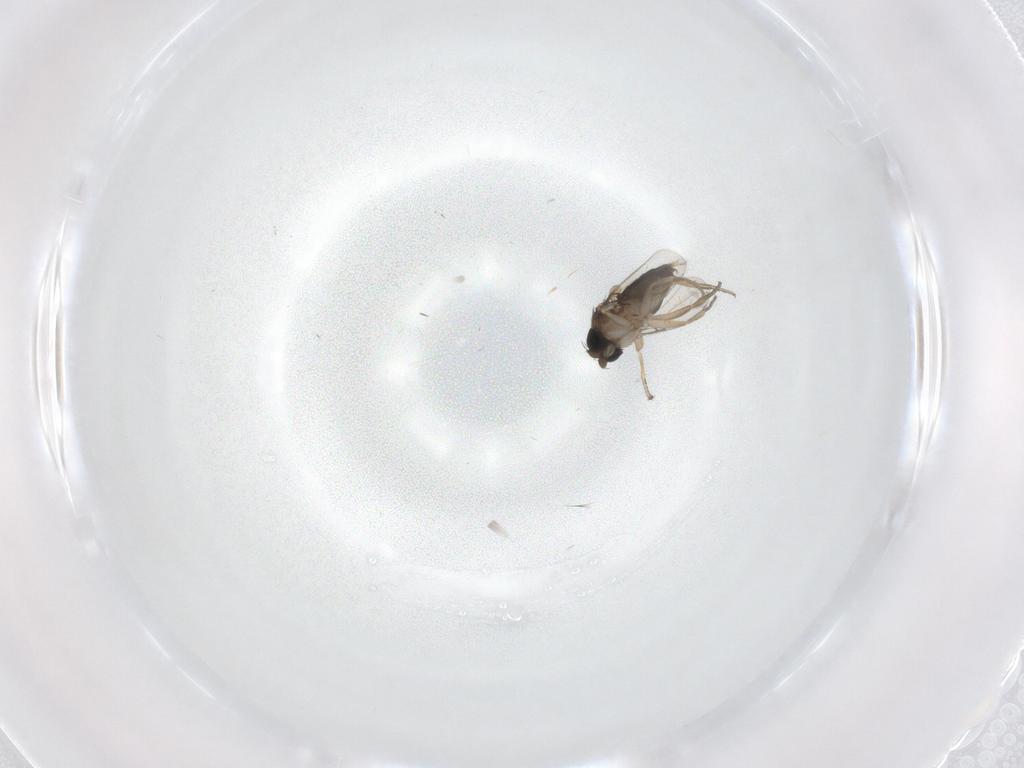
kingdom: Animalia
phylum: Arthropoda
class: Insecta
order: Diptera
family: Phoridae
